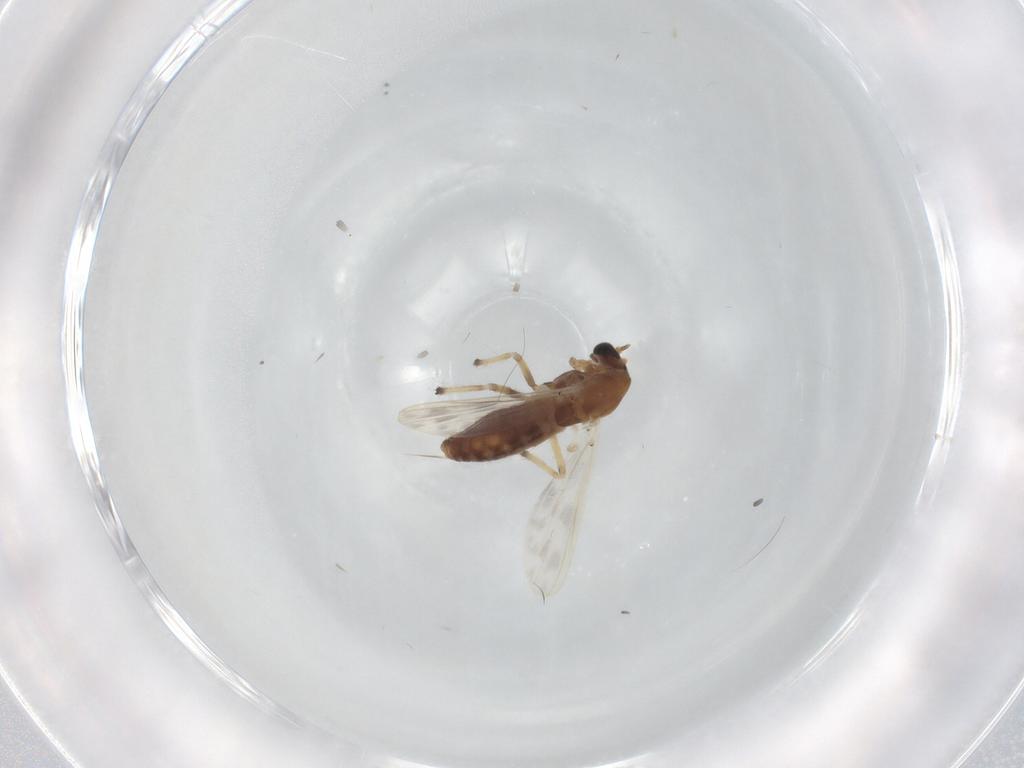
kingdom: Animalia
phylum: Arthropoda
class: Insecta
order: Diptera
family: Chironomidae
